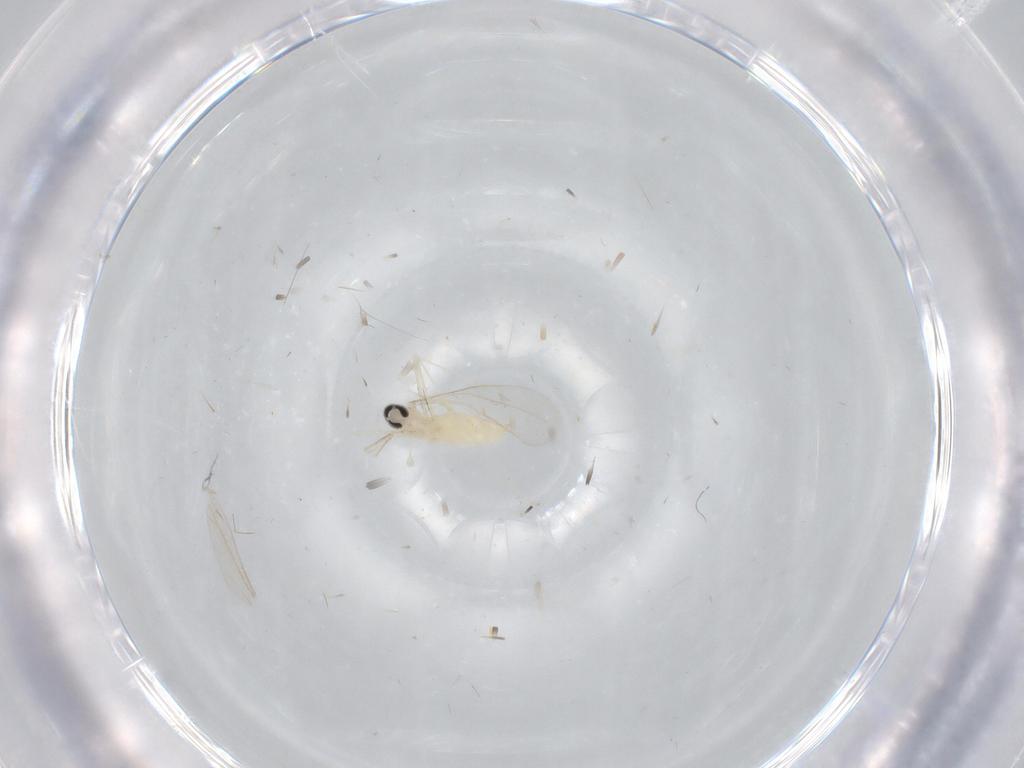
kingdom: Animalia
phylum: Arthropoda
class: Insecta
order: Diptera
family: Cecidomyiidae
